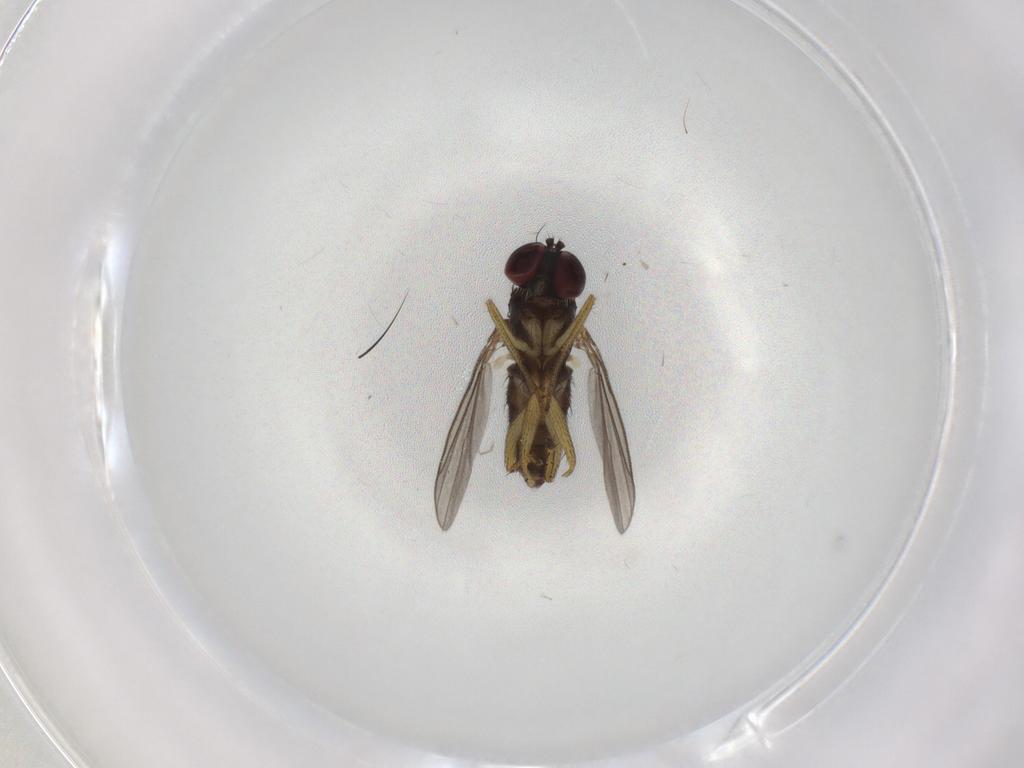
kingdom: Animalia
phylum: Arthropoda
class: Insecta
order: Diptera
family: Dolichopodidae
